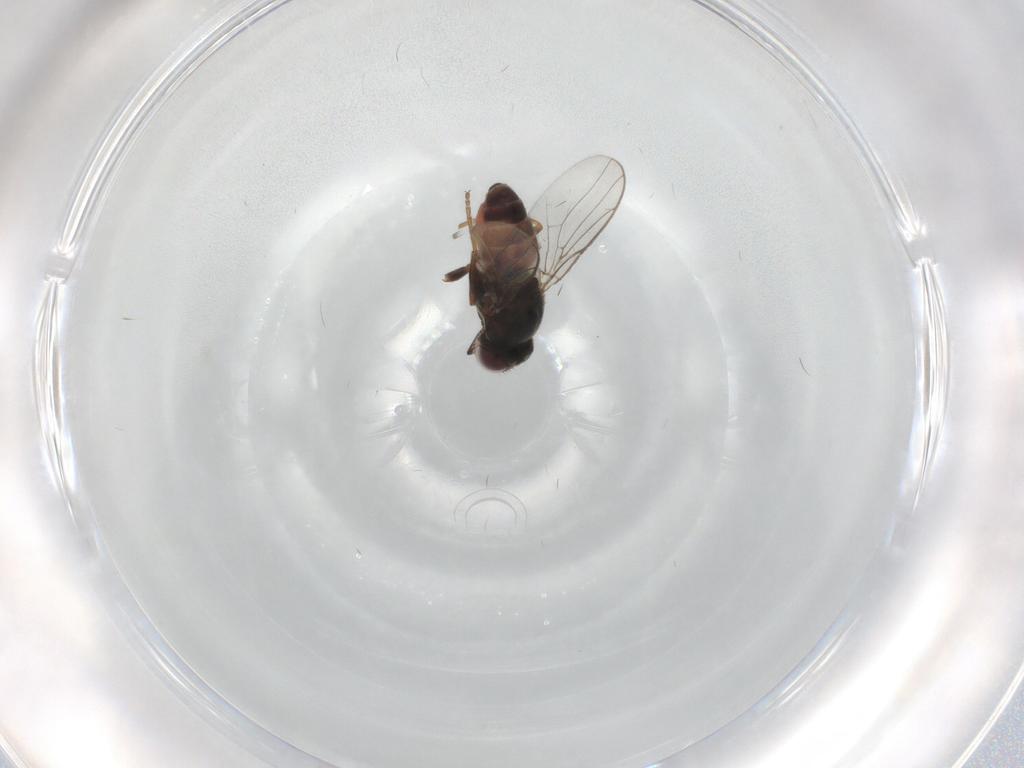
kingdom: Animalia
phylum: Arthropoda
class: Insecta
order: Diptera
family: Chloropidae
